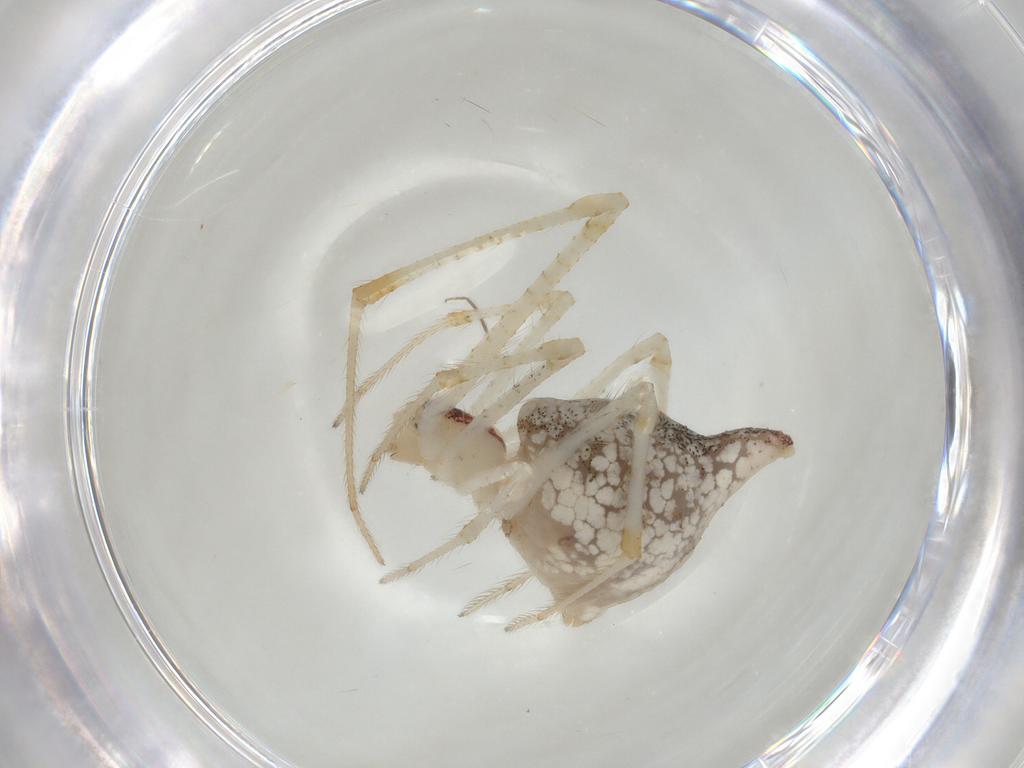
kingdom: Animalia
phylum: Arthropoda
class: Arachnida
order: Araneae
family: Theridiidae
